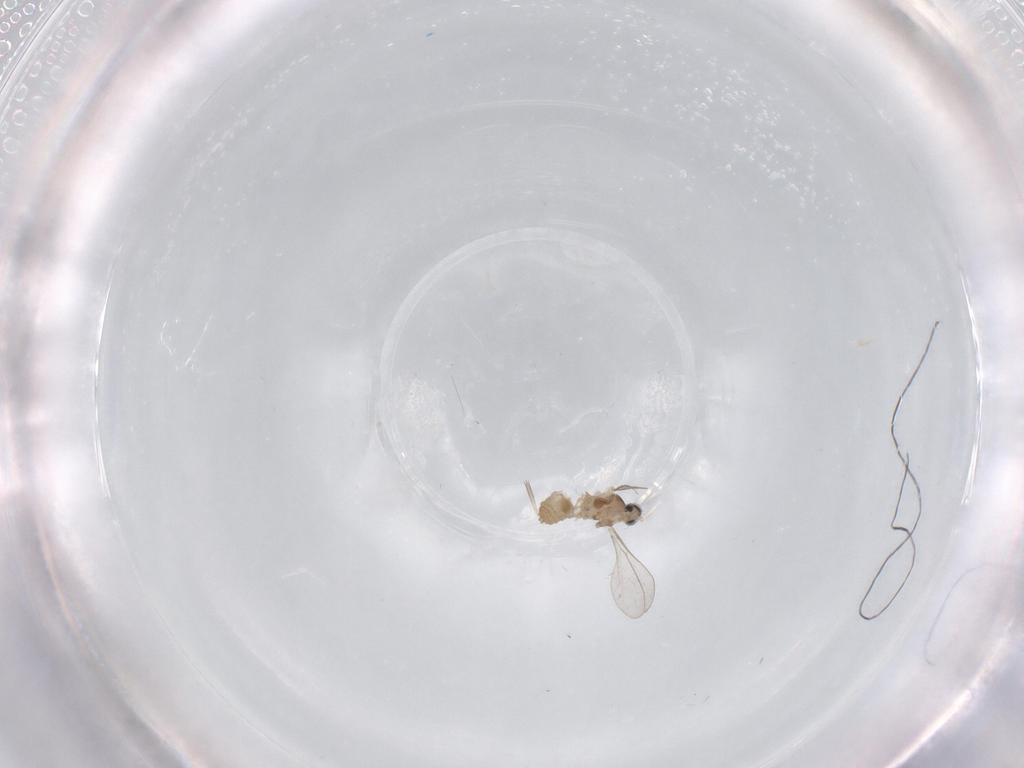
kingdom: Animalia
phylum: Arthropoda
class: Insecta
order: Diptera
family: Cecidomyiidae
